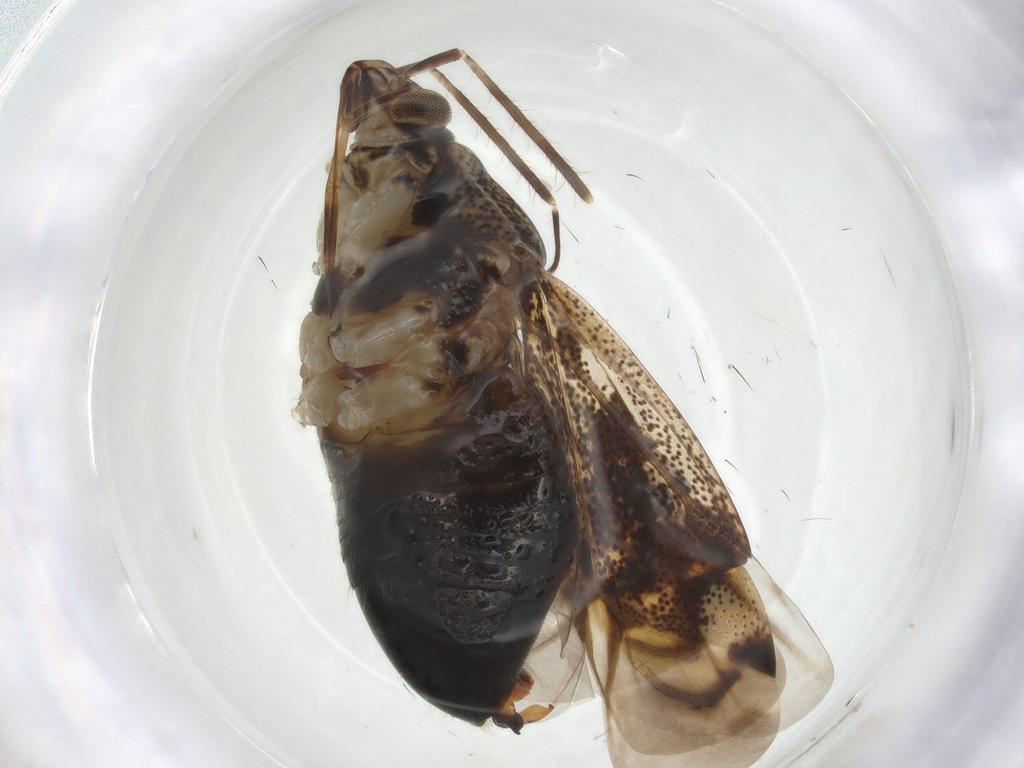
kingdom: Animalia
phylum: Arthropoda
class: Insecta
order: Hemiptera
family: Miridae
